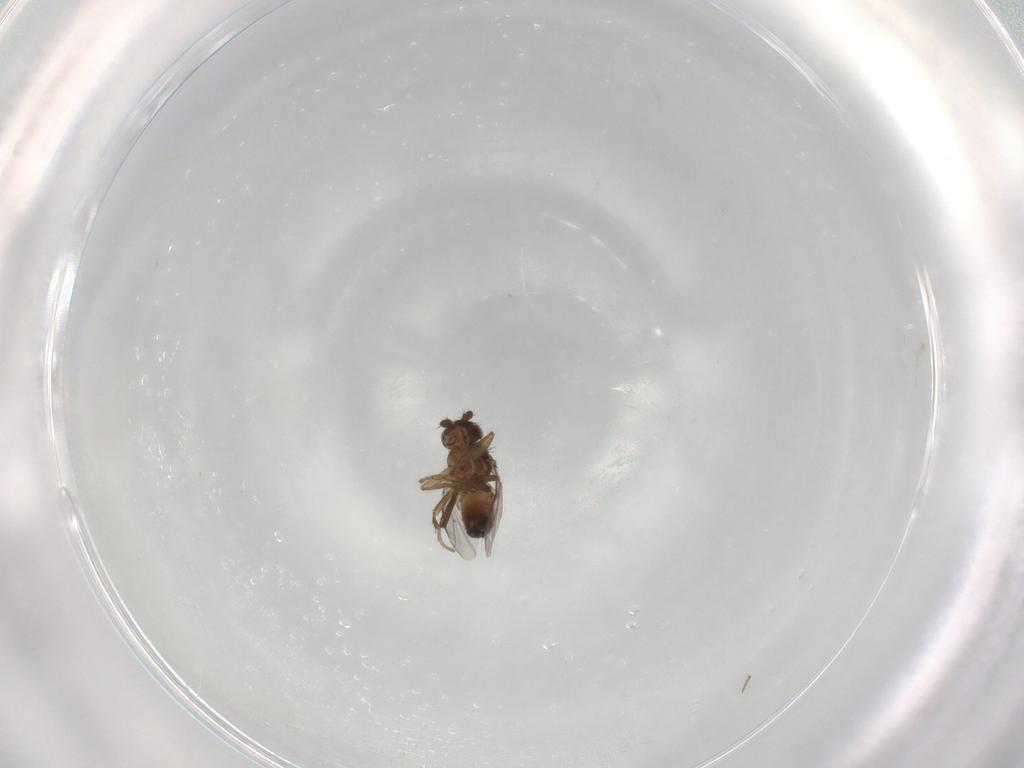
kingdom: Animalia
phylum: Arthropoda
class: Insecta
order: Diptera
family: Sphaeroceridae
